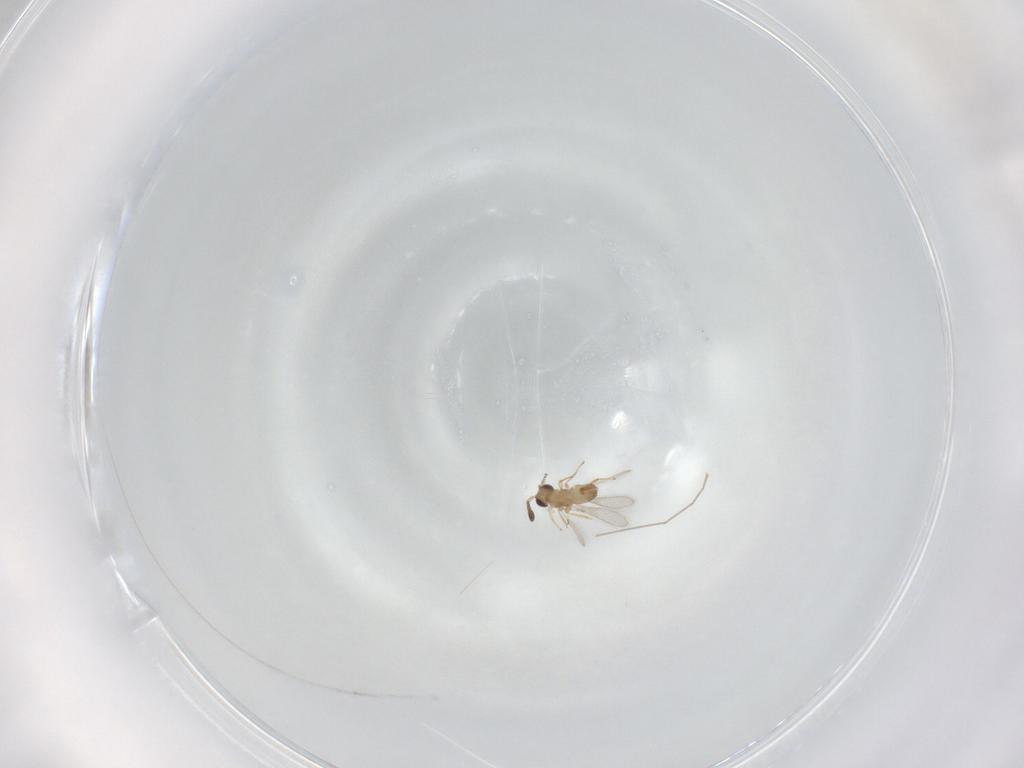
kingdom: Animalia
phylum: Arthropoda
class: Insecta
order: Hymenoptera
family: Mymaridae
